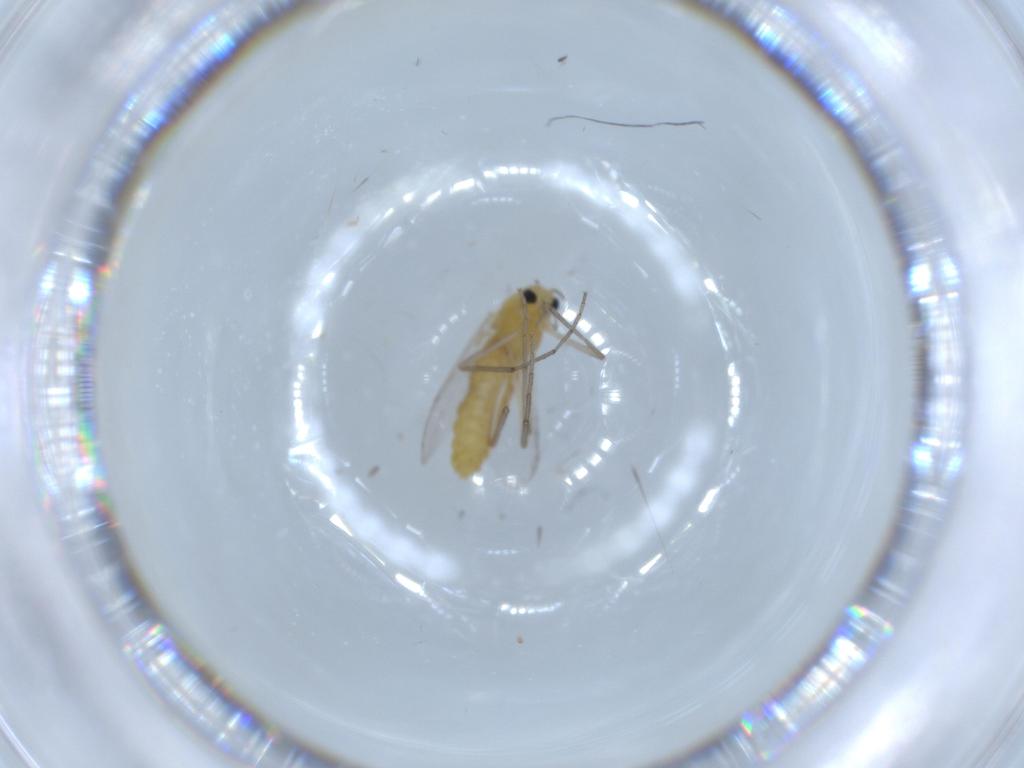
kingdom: Animalia
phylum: Arthropoda
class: Insecta
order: Diptera
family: Chironomidae
